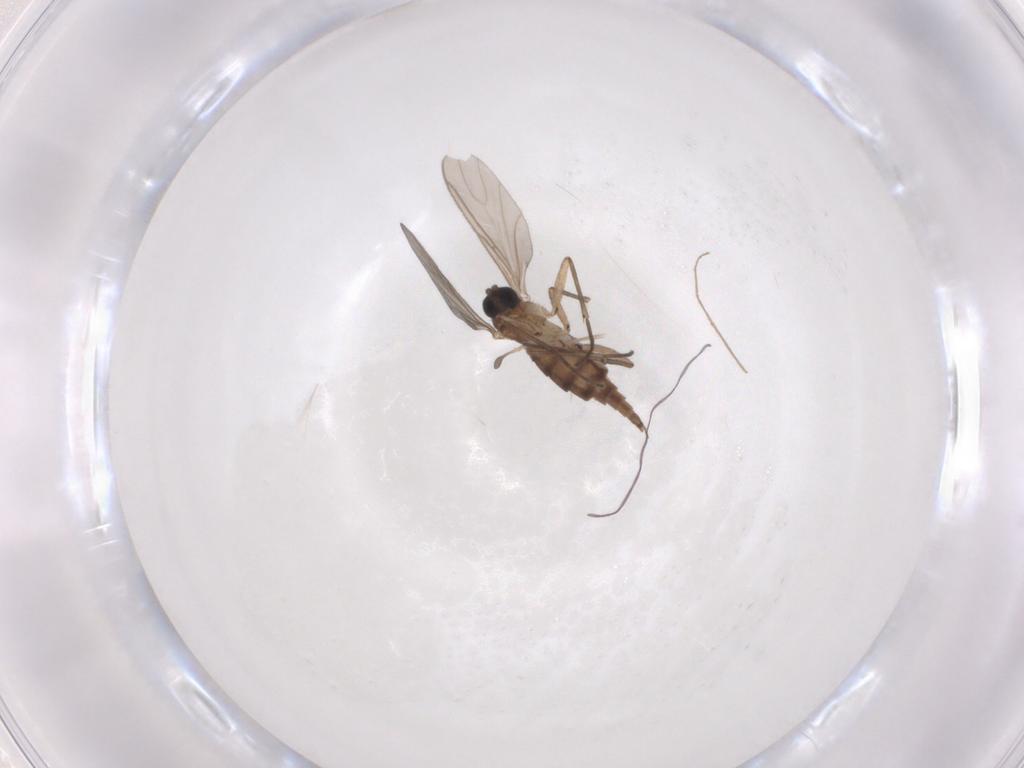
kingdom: Animalia
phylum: Arthropoda
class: Insecta
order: Diptera
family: Sciaridae
